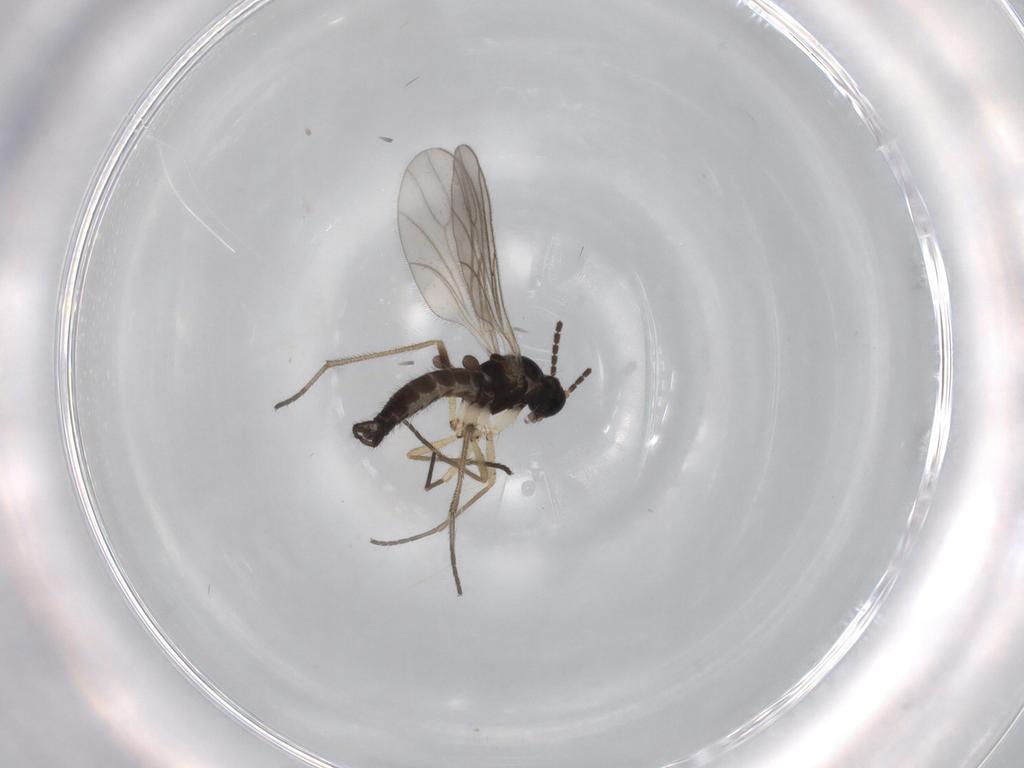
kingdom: Animalia
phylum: Arthropoda
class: Insecta
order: Diptera
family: Sciaridae
